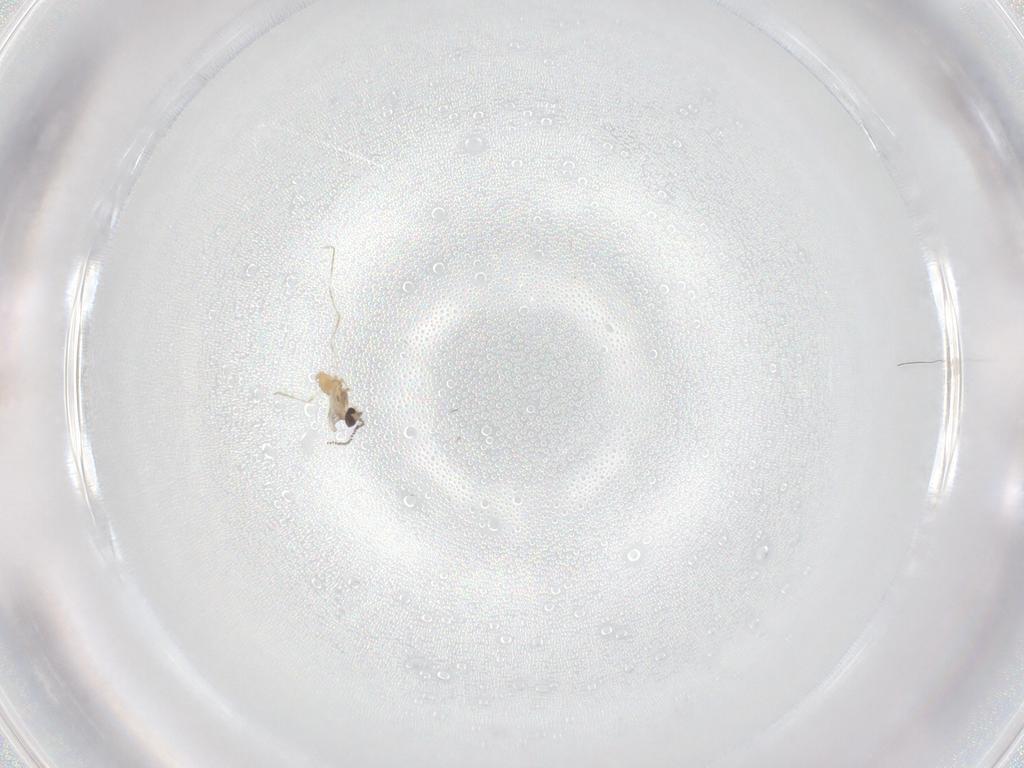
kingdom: Animalia
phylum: Arthropoda
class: Insecta
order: Diptera
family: Cecidomyiidae
